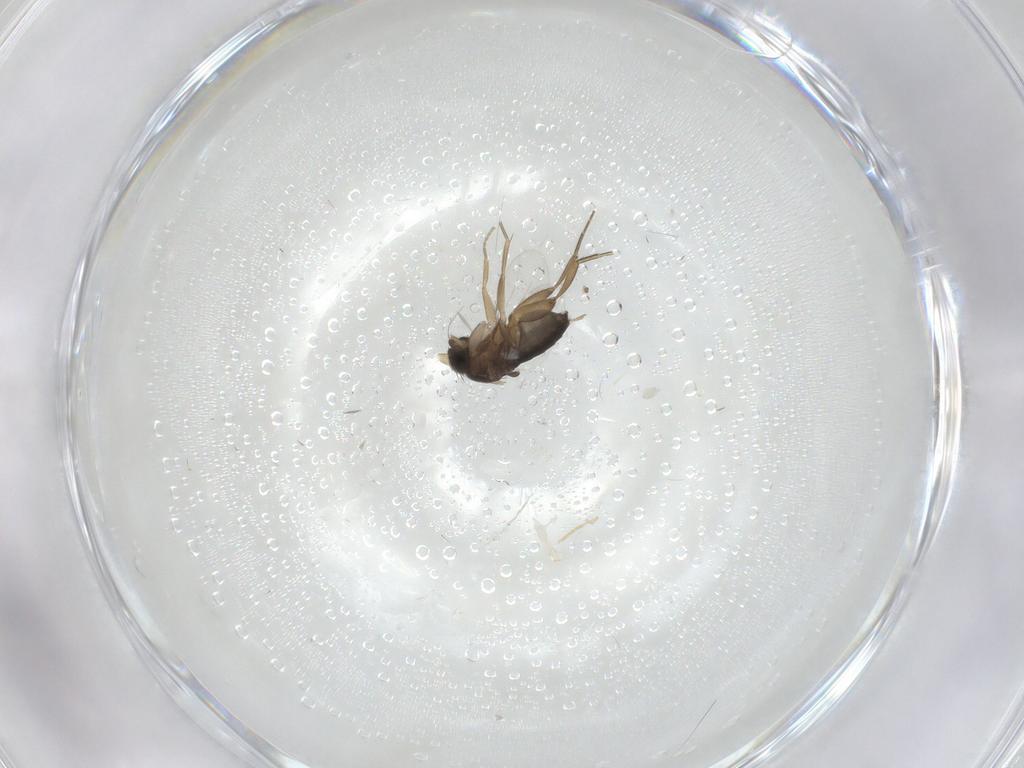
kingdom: Animalia
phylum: Arthropoda
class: Insecta
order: Diptera
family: Phoridae
